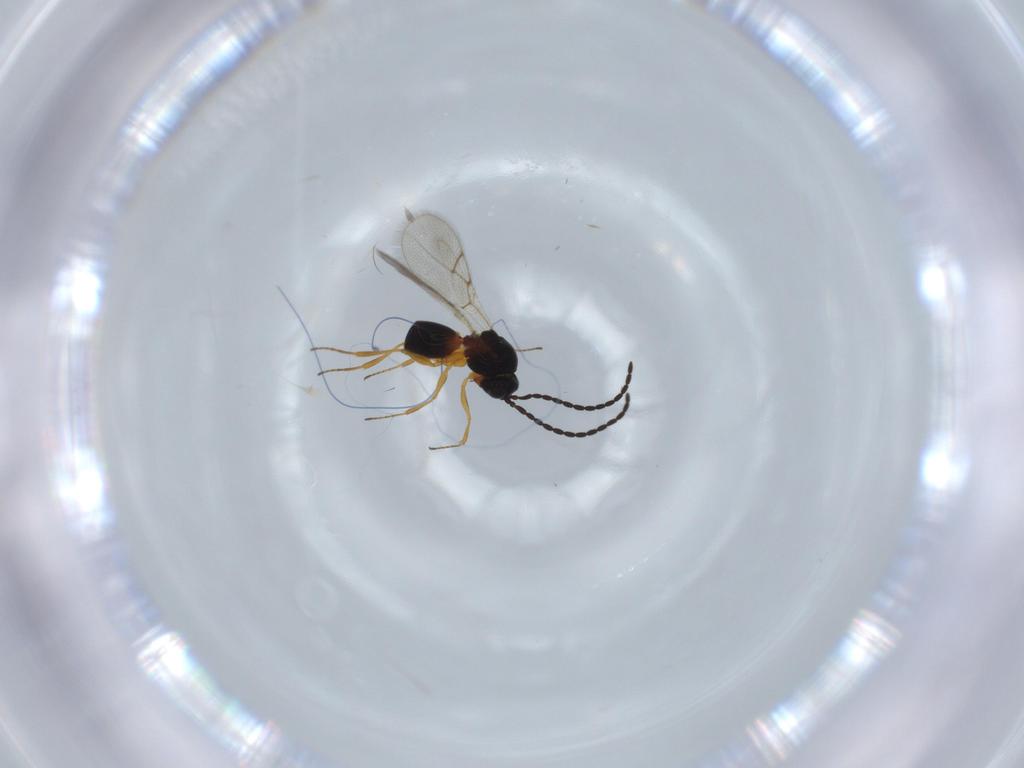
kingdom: Animalia
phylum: Arthropoda
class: Insecta
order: Hymenoptera
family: Figitidae
